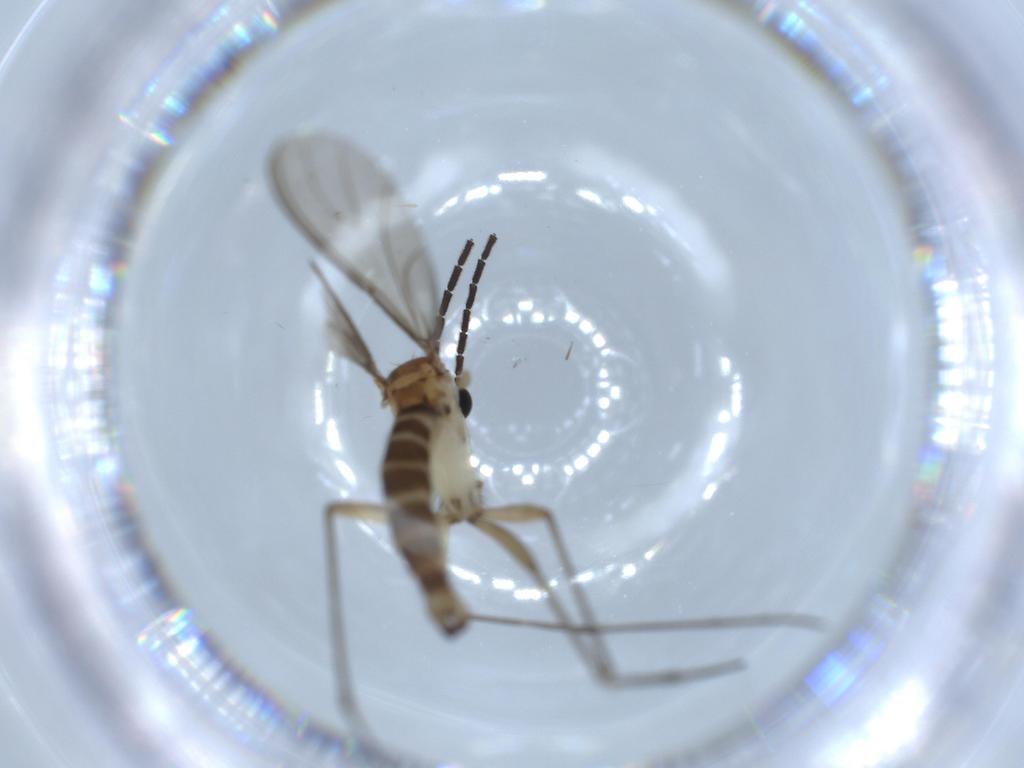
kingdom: Animalia
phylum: Arthropoda
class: Insecta
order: Diptera
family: Sciaridae
